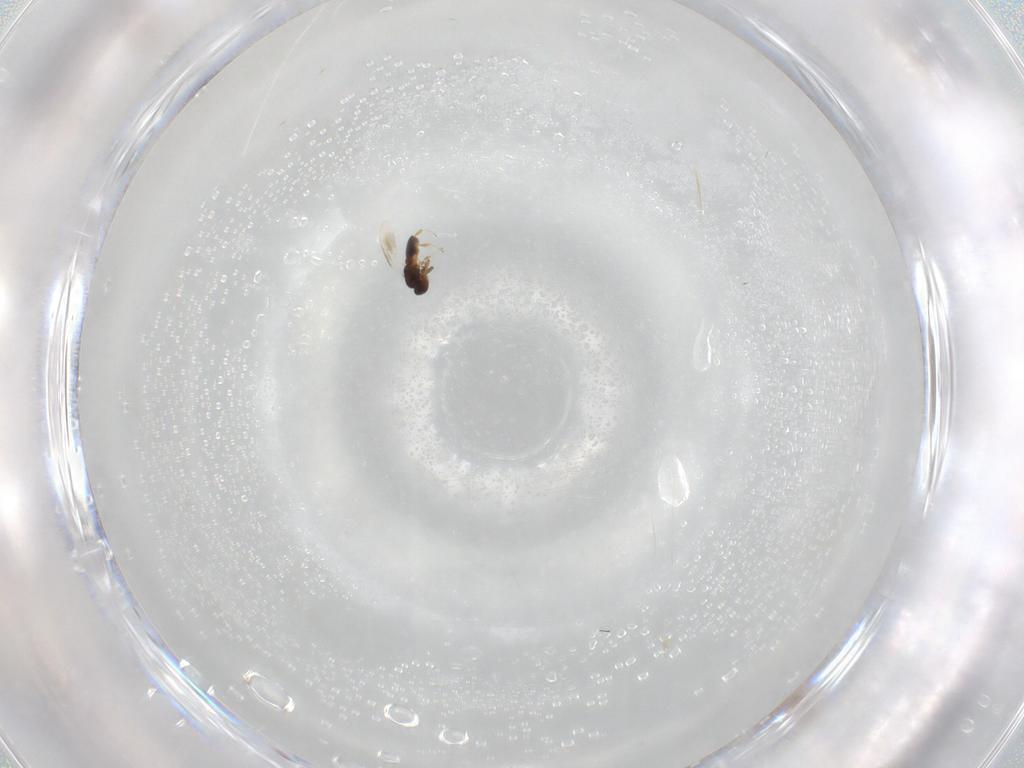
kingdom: Animalia
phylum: Arthropoda
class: Insecta
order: Hymenoptera
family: Platygastridae
